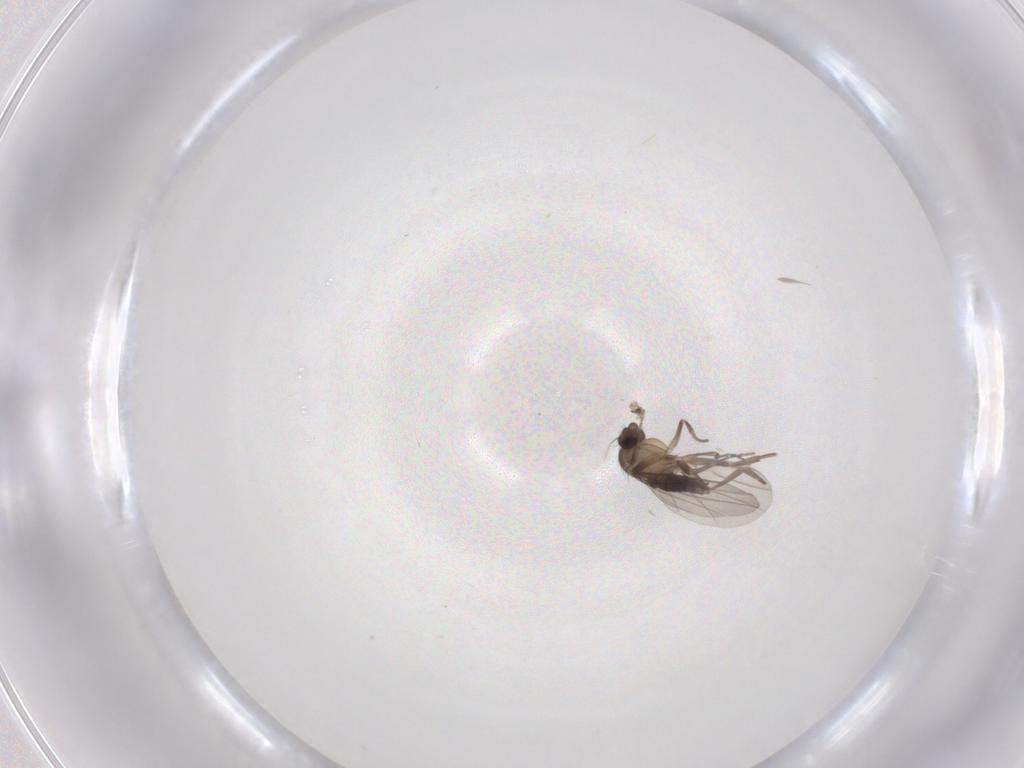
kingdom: Animalia
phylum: Arthropoda
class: Insecta
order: Diptera
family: Phoridae
